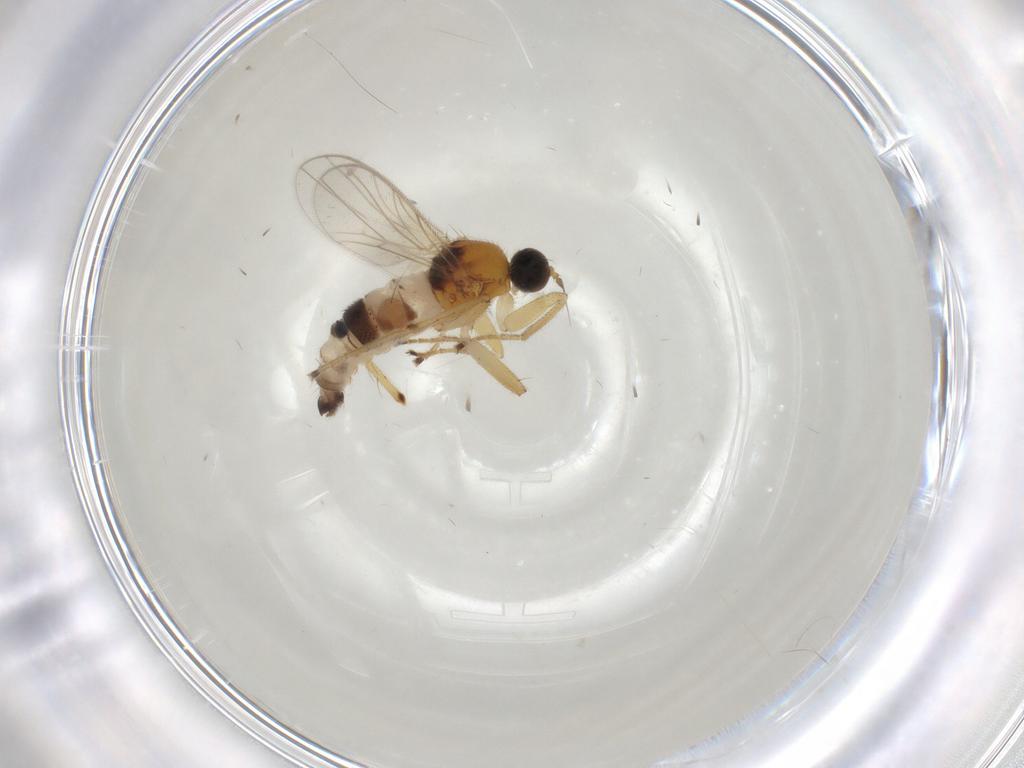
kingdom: Animalia
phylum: Arthropoda
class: Insecta
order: Diptera
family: Hybotidae
